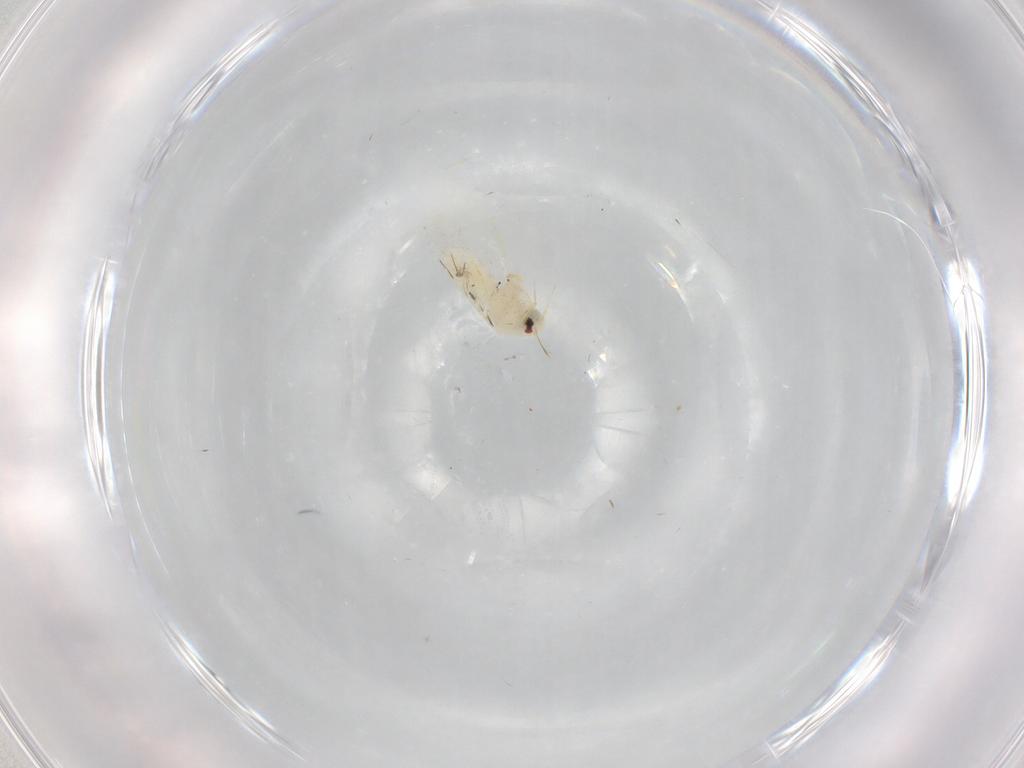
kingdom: Animalia
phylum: Arthropoda
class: Insecta
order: Hemiptera
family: Aleyrodidae
